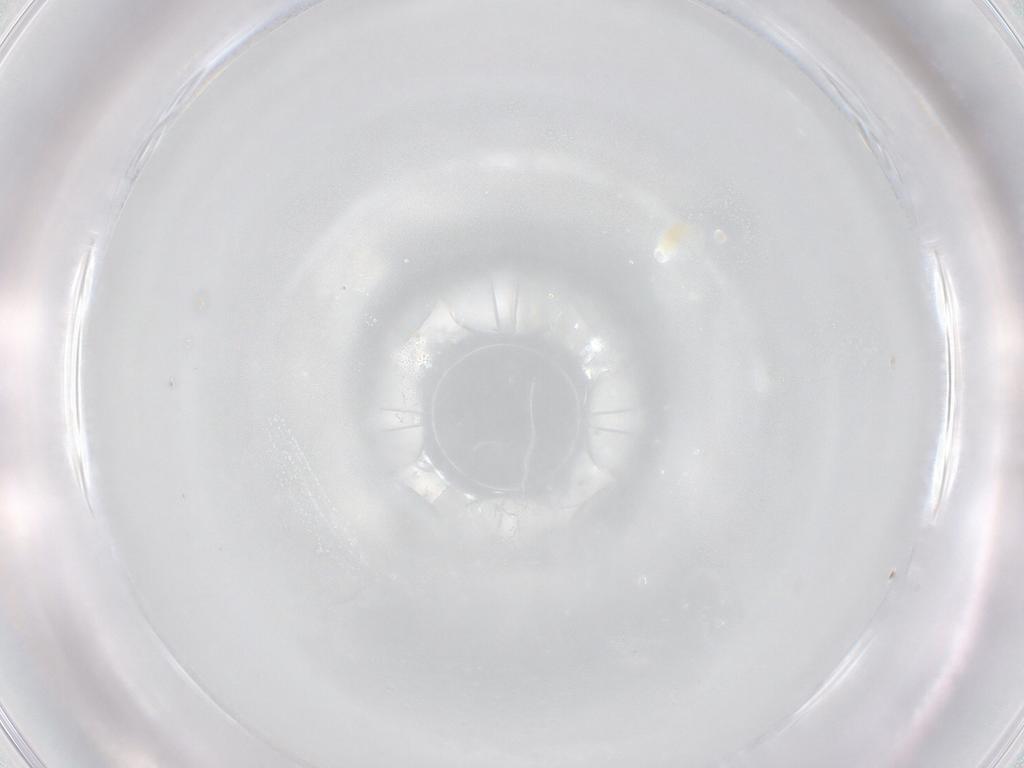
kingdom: Animalia
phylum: Arthropoda
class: Arachnida
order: Trombidiformes
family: Eupodidae
